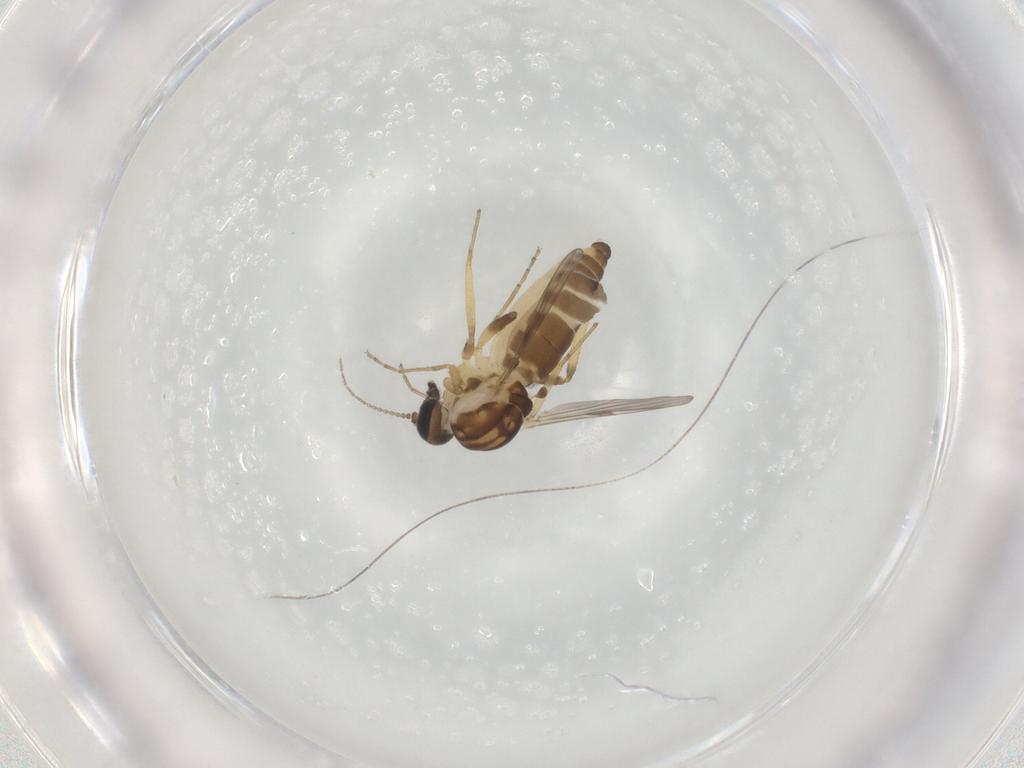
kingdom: Animalia
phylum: Arthropoda
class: Insecta
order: Diptera
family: Ceratopogonidae
